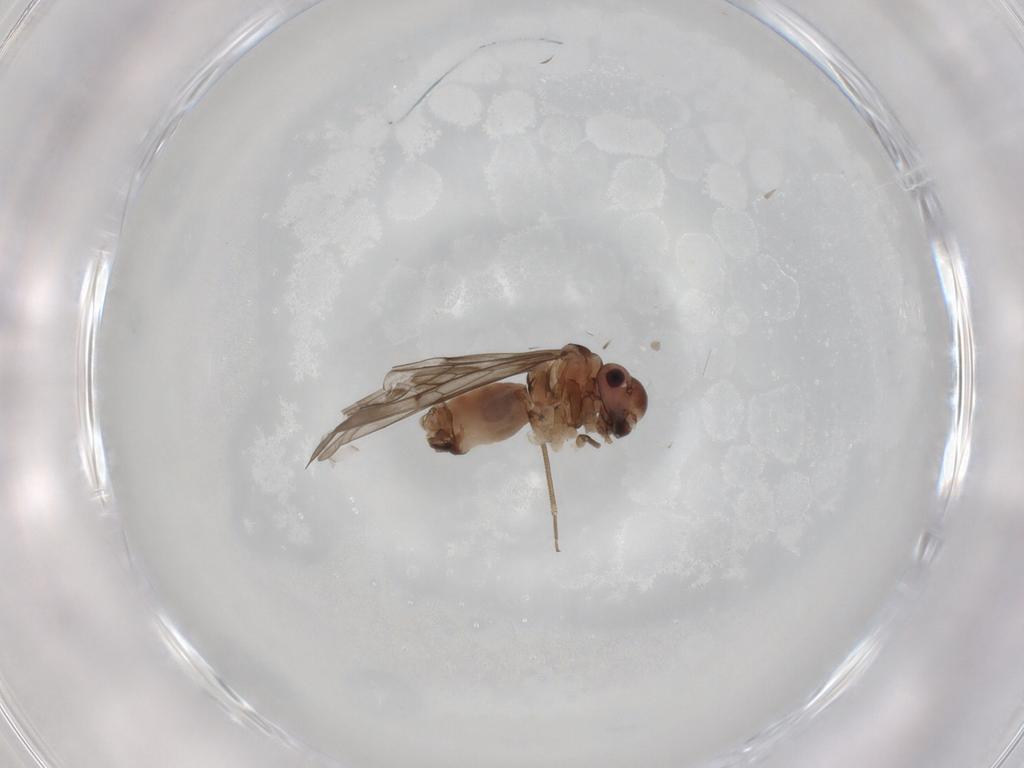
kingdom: Animalia
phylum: Arthropoda
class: Insecta
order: Psocodea
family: Peripsocidae
